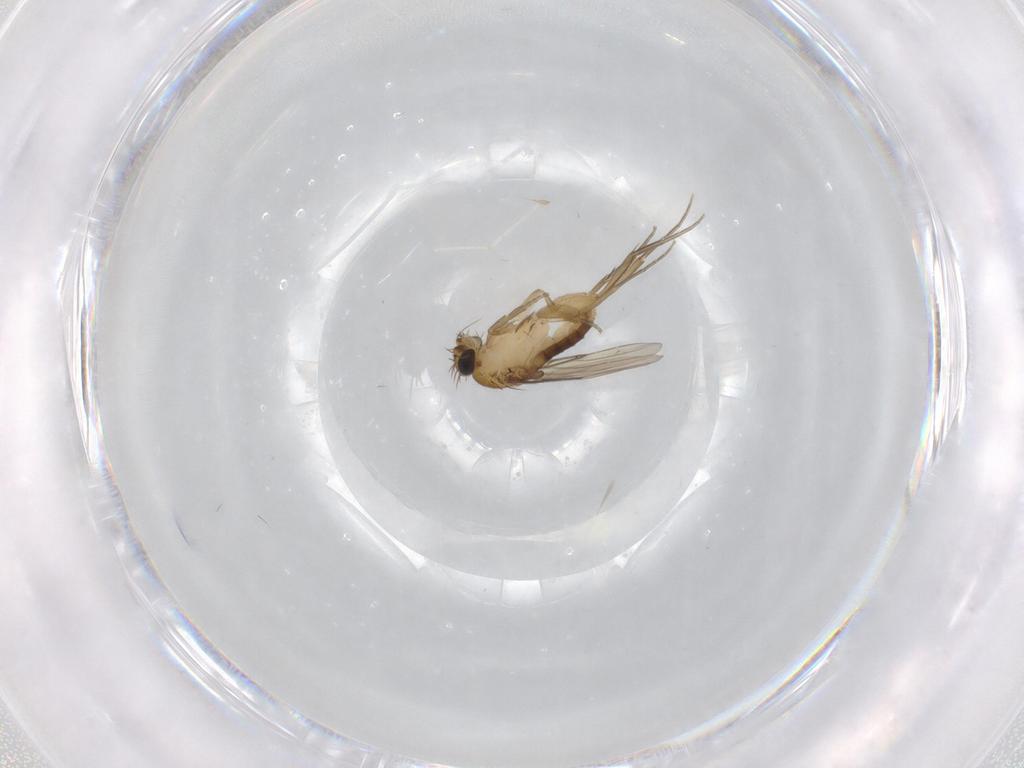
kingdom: Animalia
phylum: Arthropoda
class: Insecta
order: Diptera
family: Phoridae
